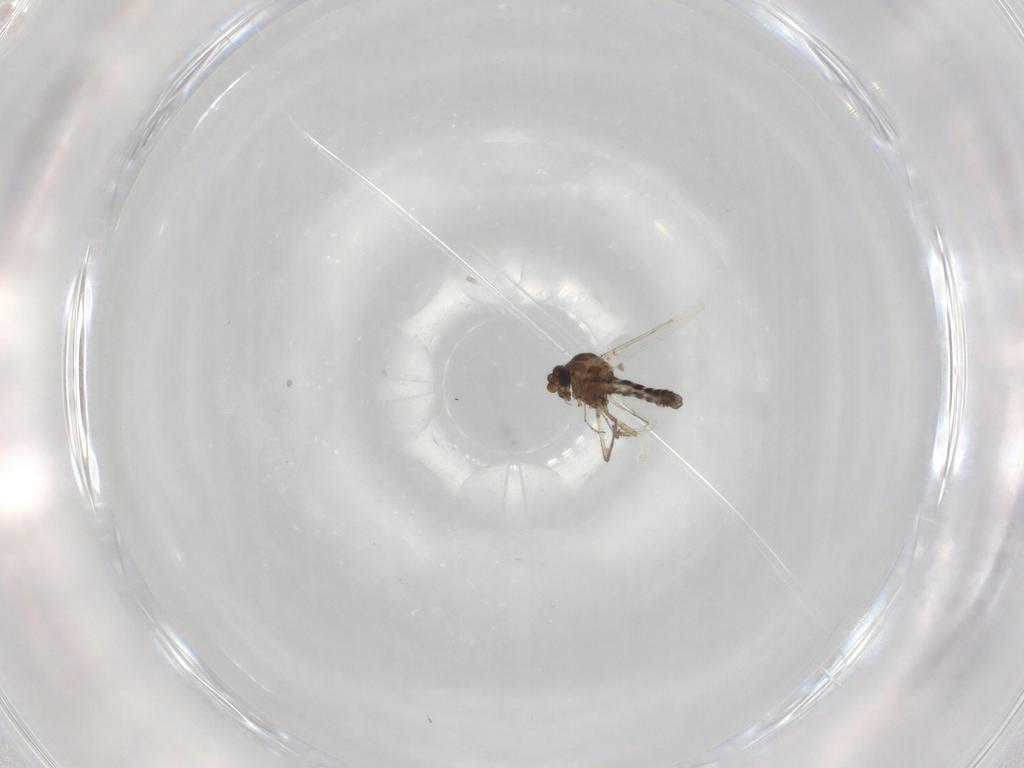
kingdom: Animalia
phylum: Arthropoda
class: Insecta
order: Diptera
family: Ceratopogonidae
